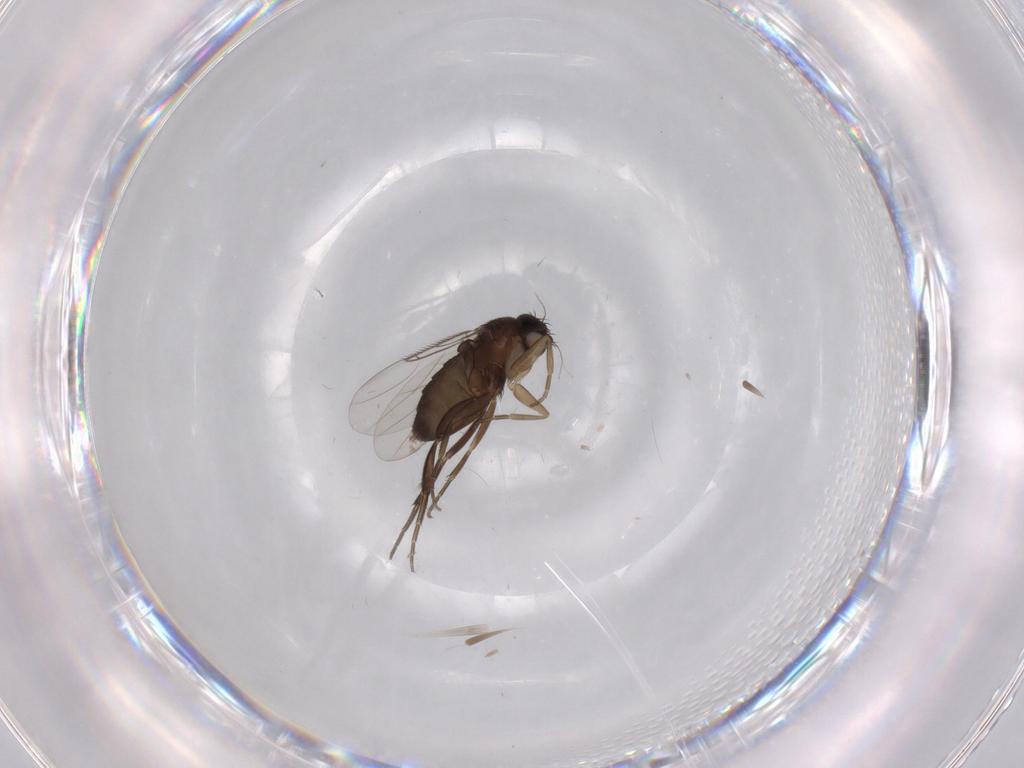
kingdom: Animalia
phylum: Arthropoda
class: Insecta
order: Diptera
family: Phoridae
